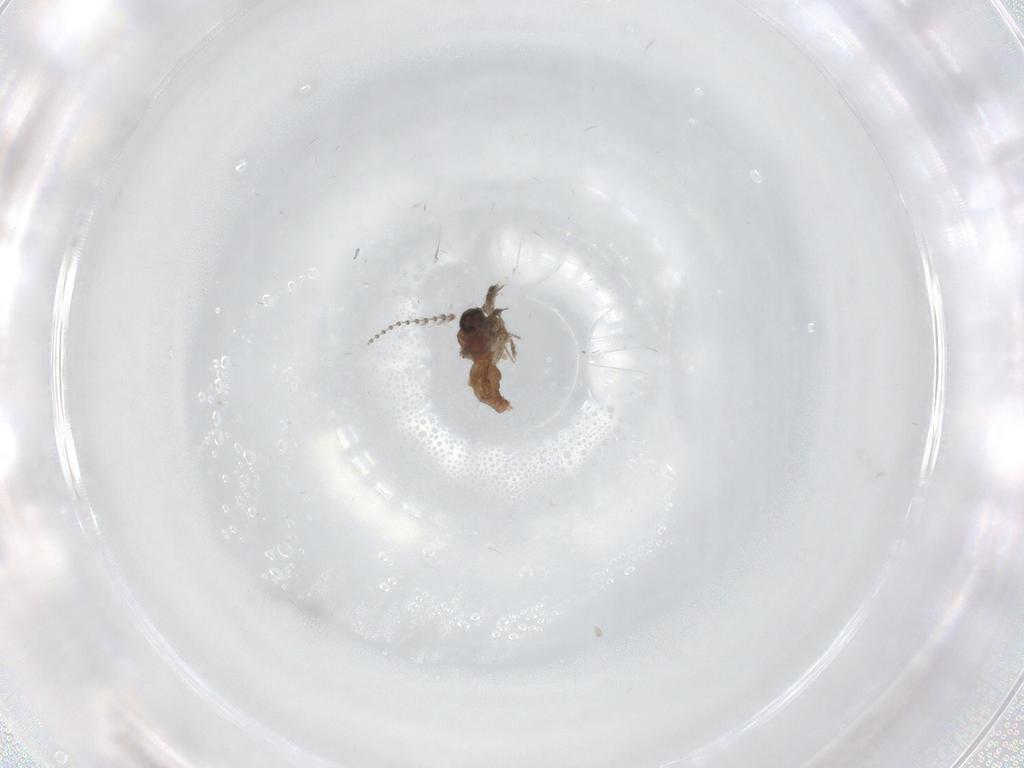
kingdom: Animalia
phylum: Arthropoda
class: Insecta
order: Diptera
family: Ceratopogonidae
